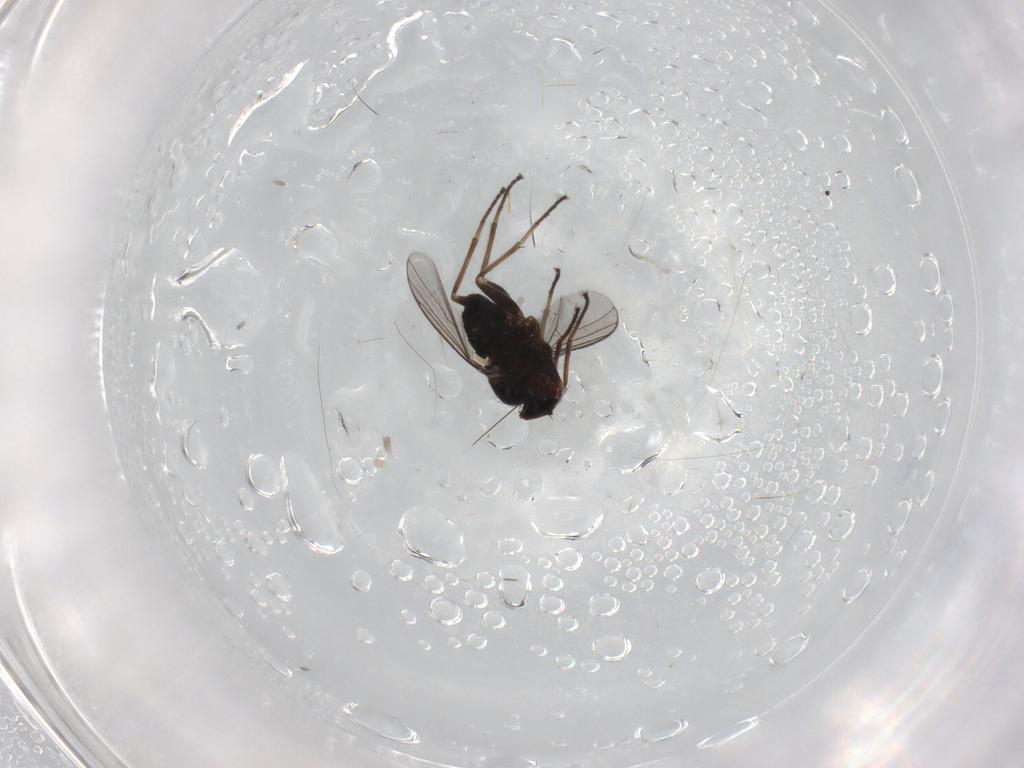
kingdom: Animalia
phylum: Arthropoda
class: Insecta
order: Diptera
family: Dolichopodidae
